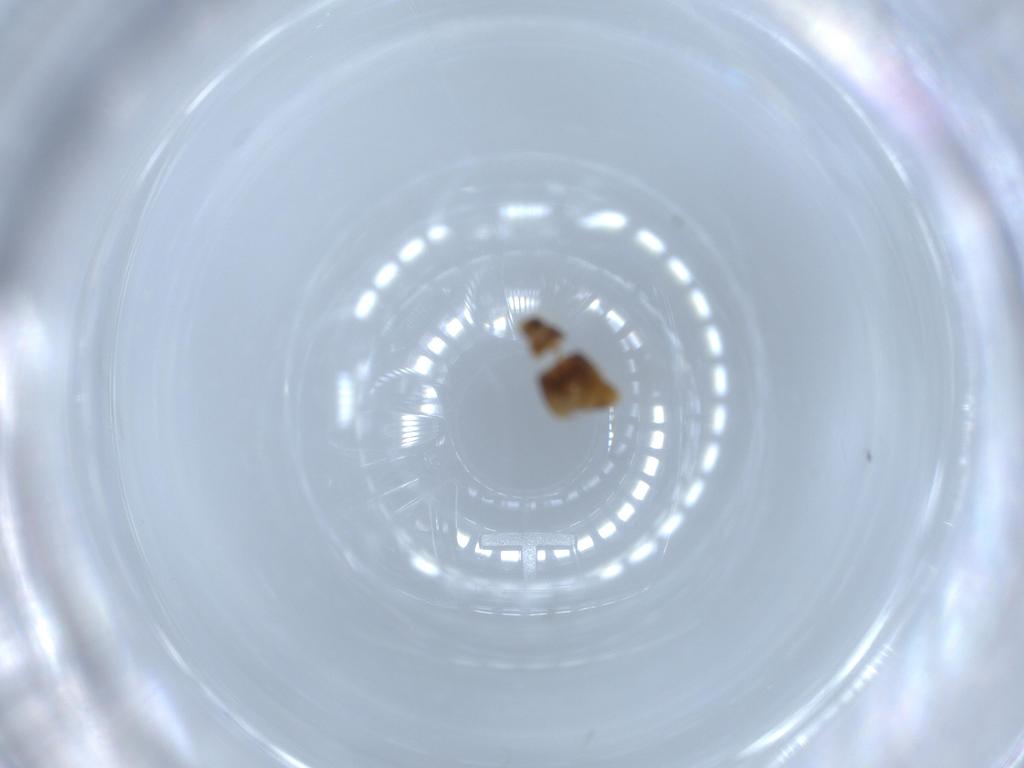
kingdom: Animalia
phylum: Arthropoda
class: Insecta
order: Coleoptera
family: Ptiliidae
